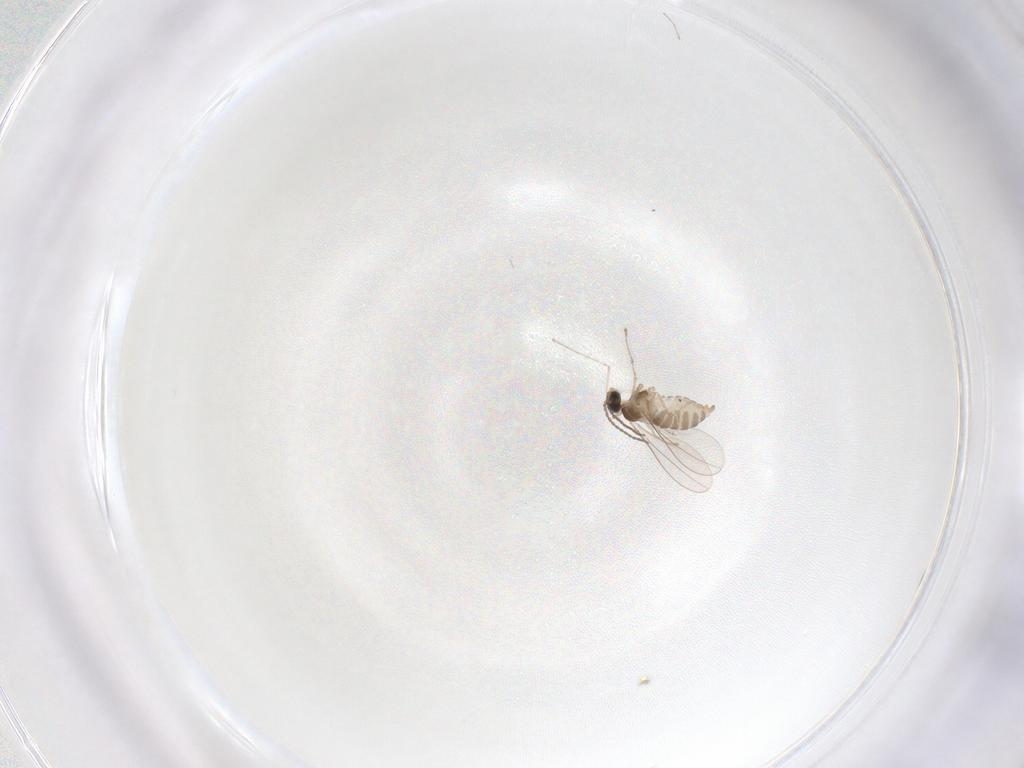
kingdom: Animalia
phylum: Arthropoda
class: Insecta
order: Diptera
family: Cecidomyiidae
